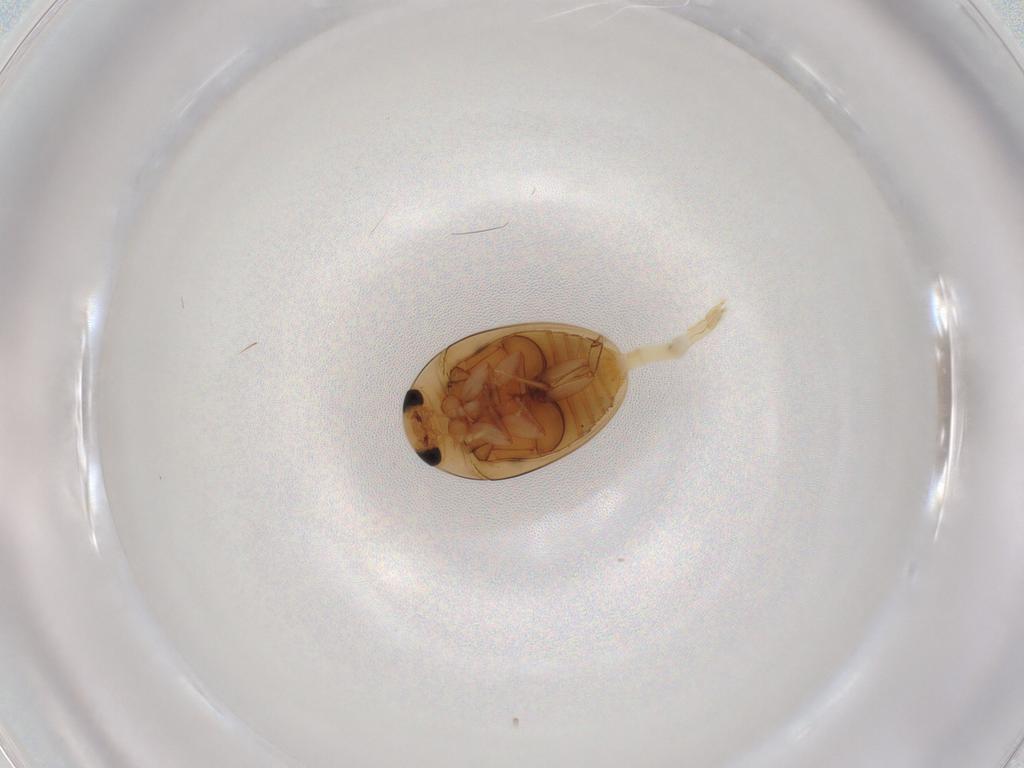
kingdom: Animalia
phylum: Arthropoda
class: Insecta
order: Coleoptera
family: Phalacridae
